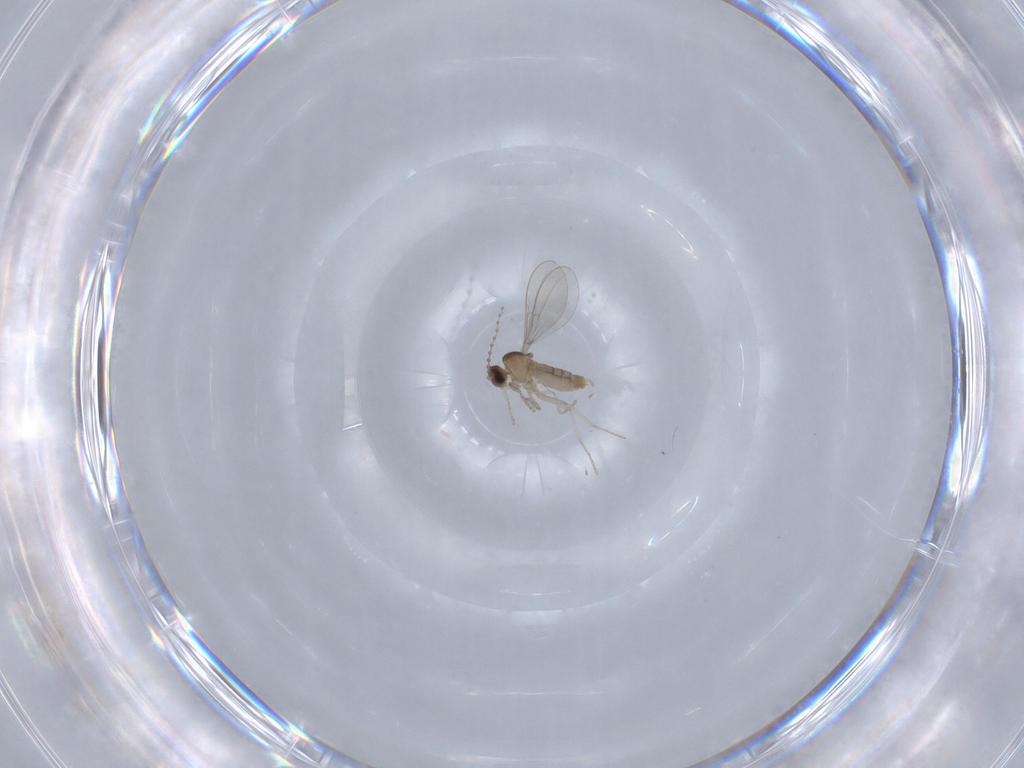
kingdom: Animalia
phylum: Arthropoda
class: Insecta
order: Diptera
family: Cecidomyiidae
